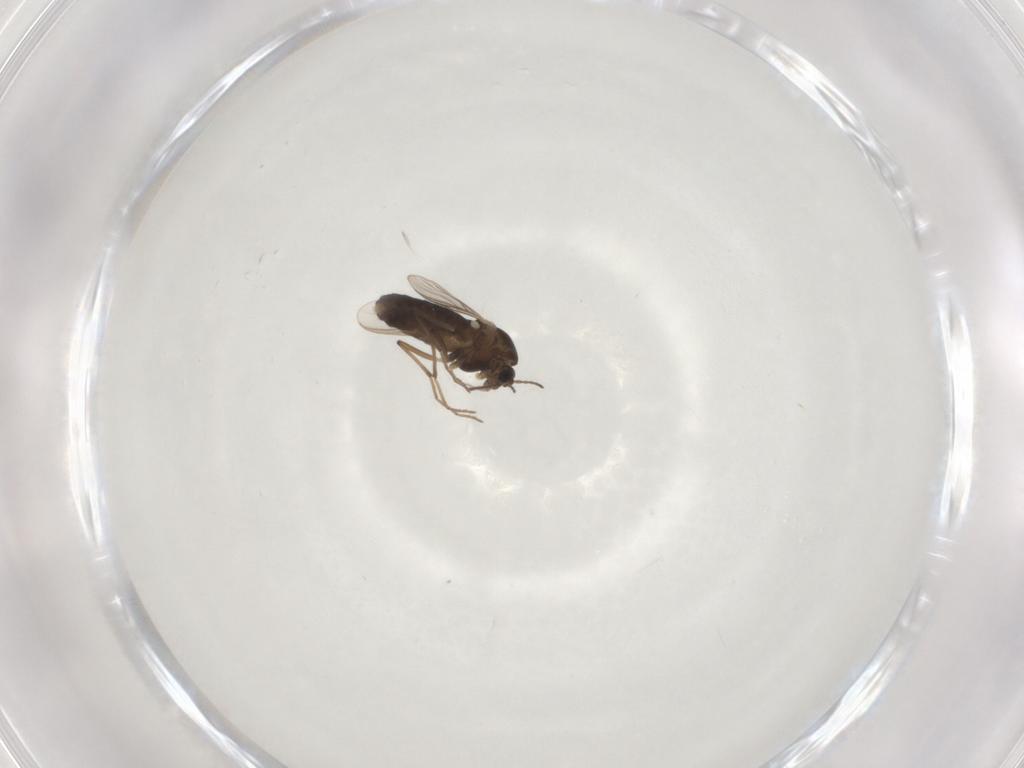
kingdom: Animalia
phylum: Arthropoda
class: Insecta
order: Diptera
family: Chironomidae
